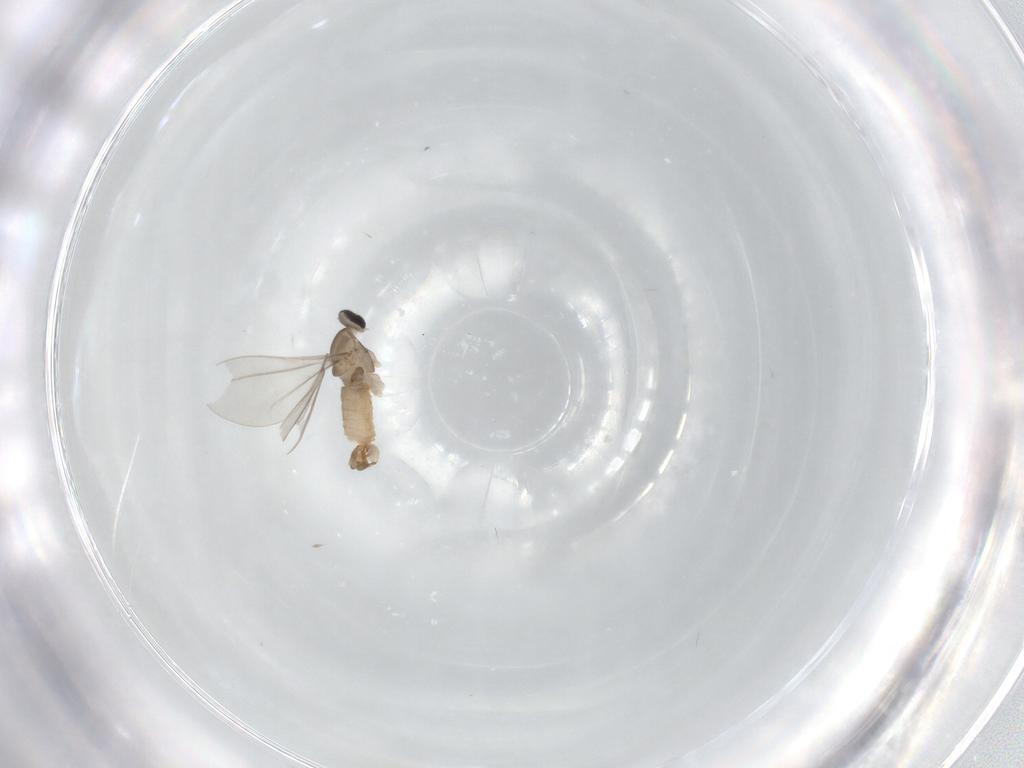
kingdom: Animalia
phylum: Arthropoda
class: Insecta
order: Diptera
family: Cecidomyiidae
